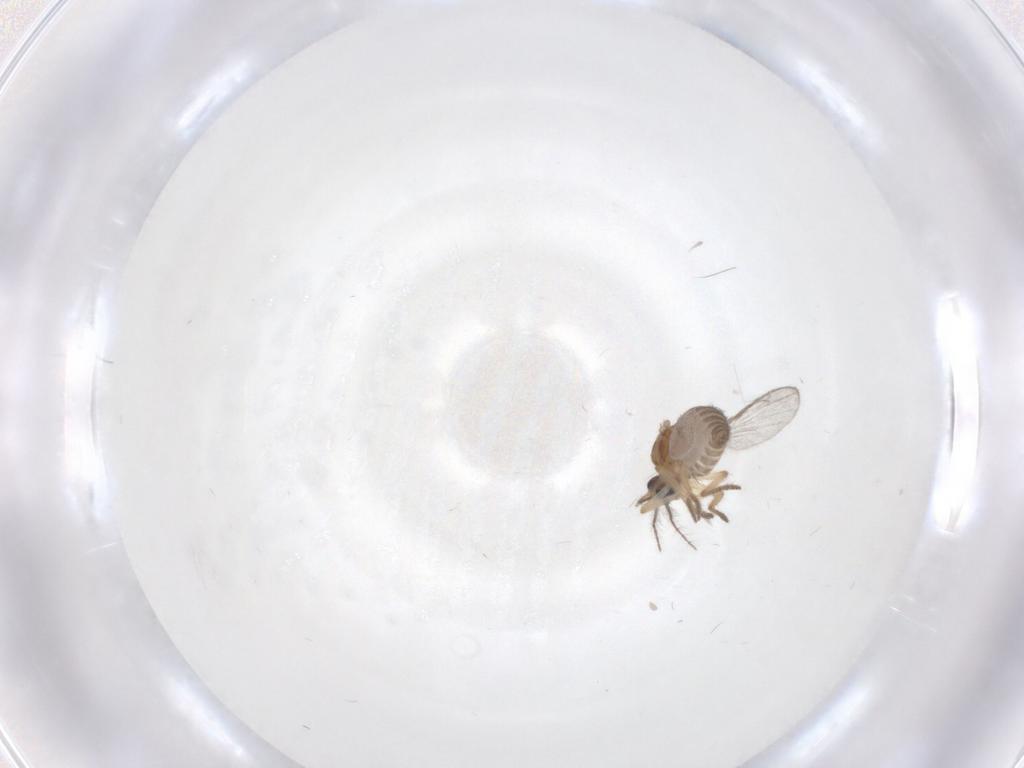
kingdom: Animalia
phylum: Arthropoda
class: Insecta
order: Diptera
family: Ceratopogonidae
